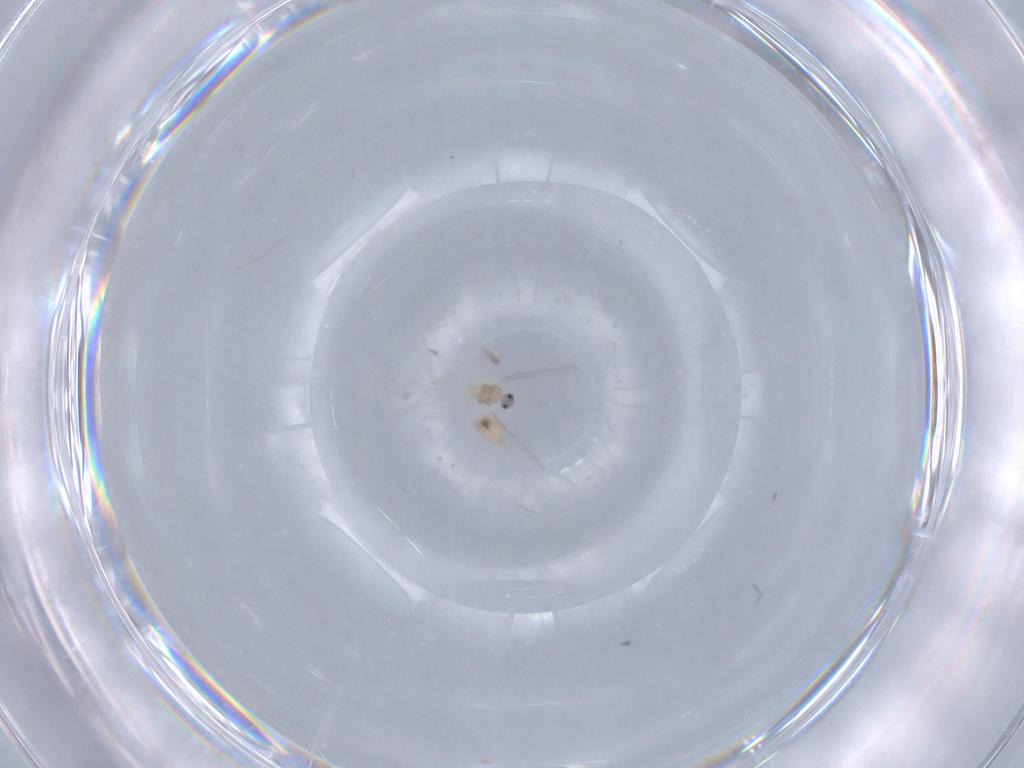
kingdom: Animalia
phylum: Arthropoda
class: Insecta
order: Diptera
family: Cecidomyiidae
